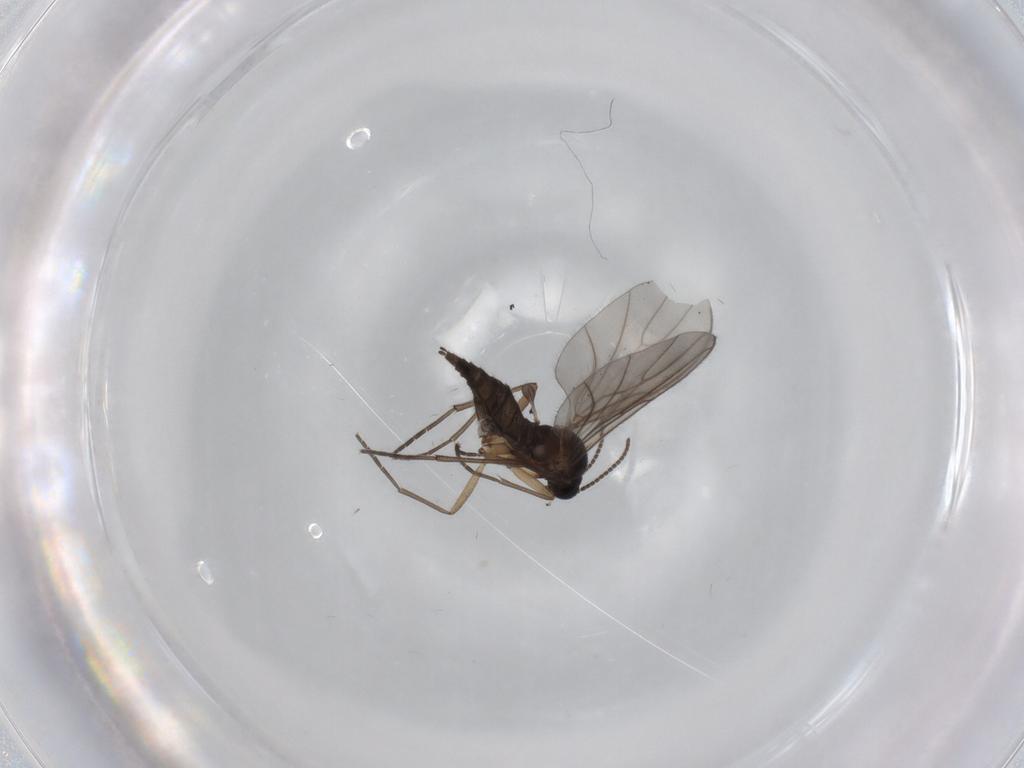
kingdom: Animalia
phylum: Arthropoda
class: Insecta
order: Diptera
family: Sciaridae
